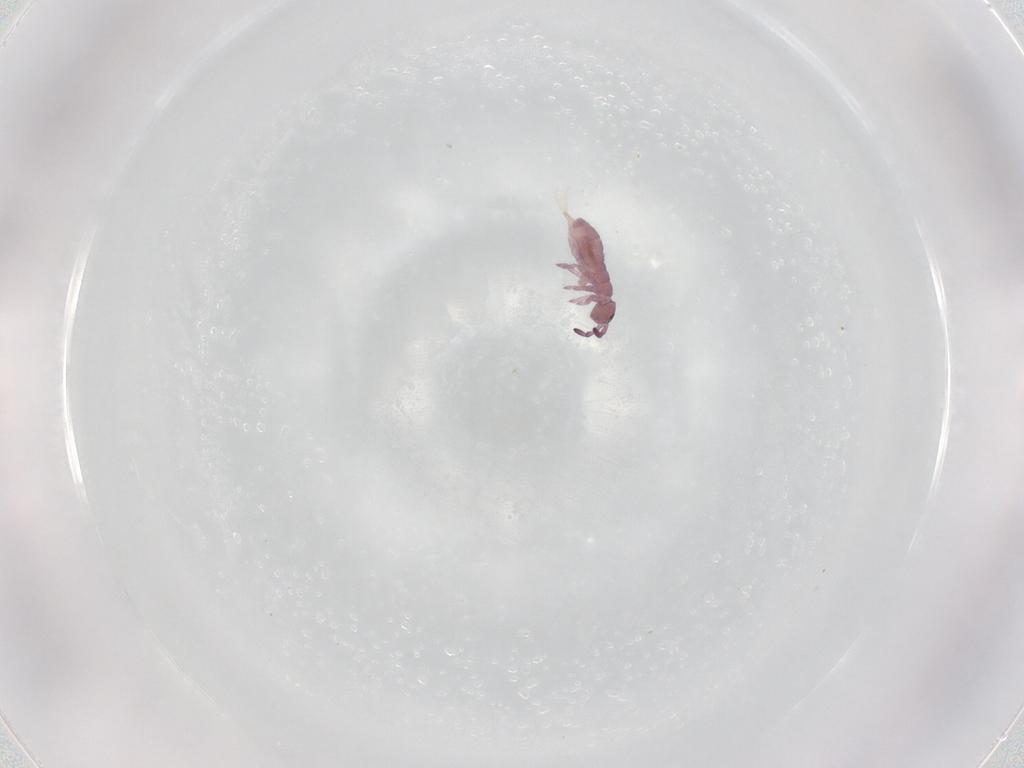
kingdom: Animalia
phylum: Arthropoda
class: Collembola
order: Entomobryomorpha
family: Isotomidae
